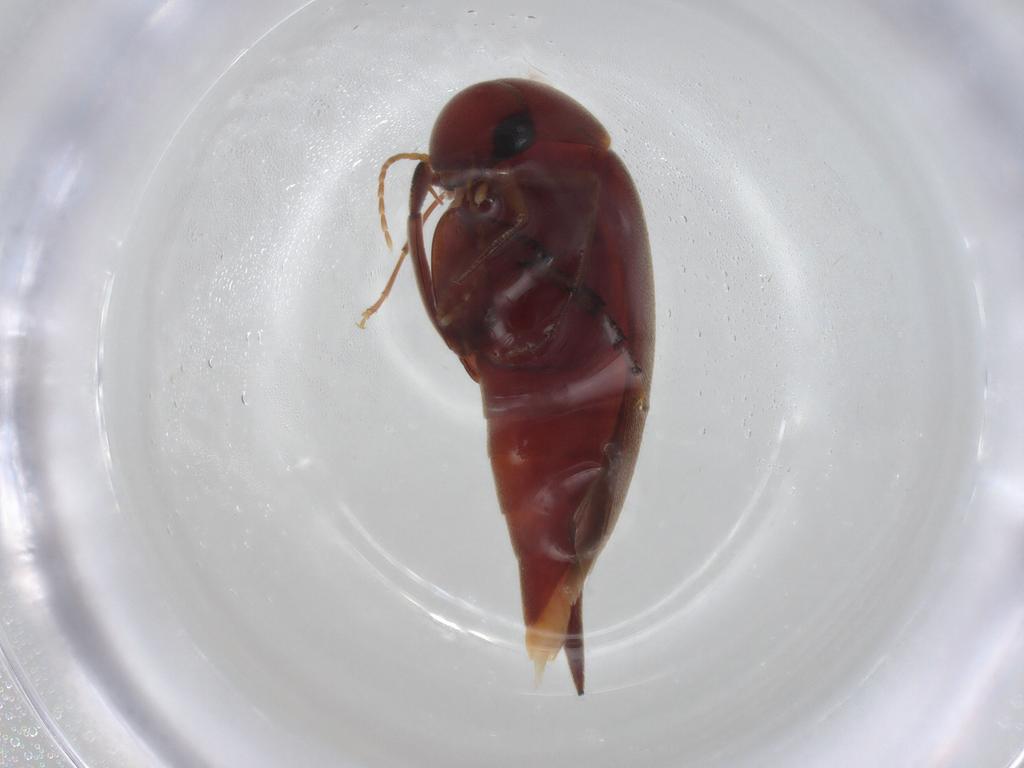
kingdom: Animalia
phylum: Arthropoda
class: Insecta
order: Coleoptera
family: Mordellidae
